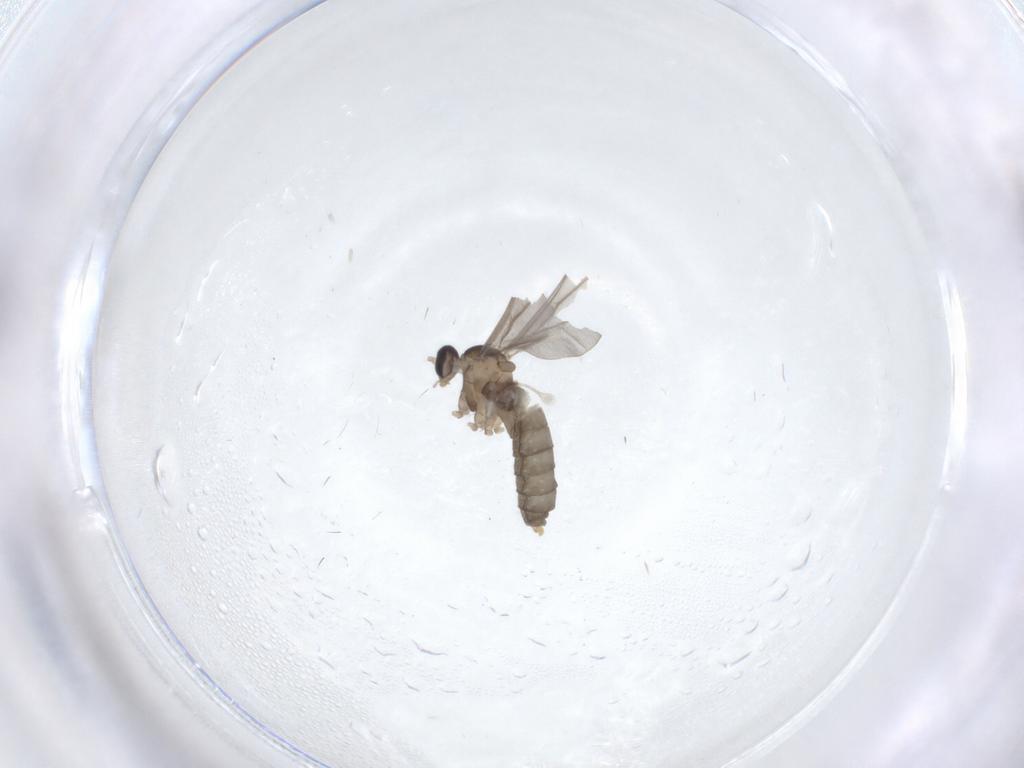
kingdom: Animalia
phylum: Arthropoda
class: Insecta
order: Diptera
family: Cecidomyiidae
